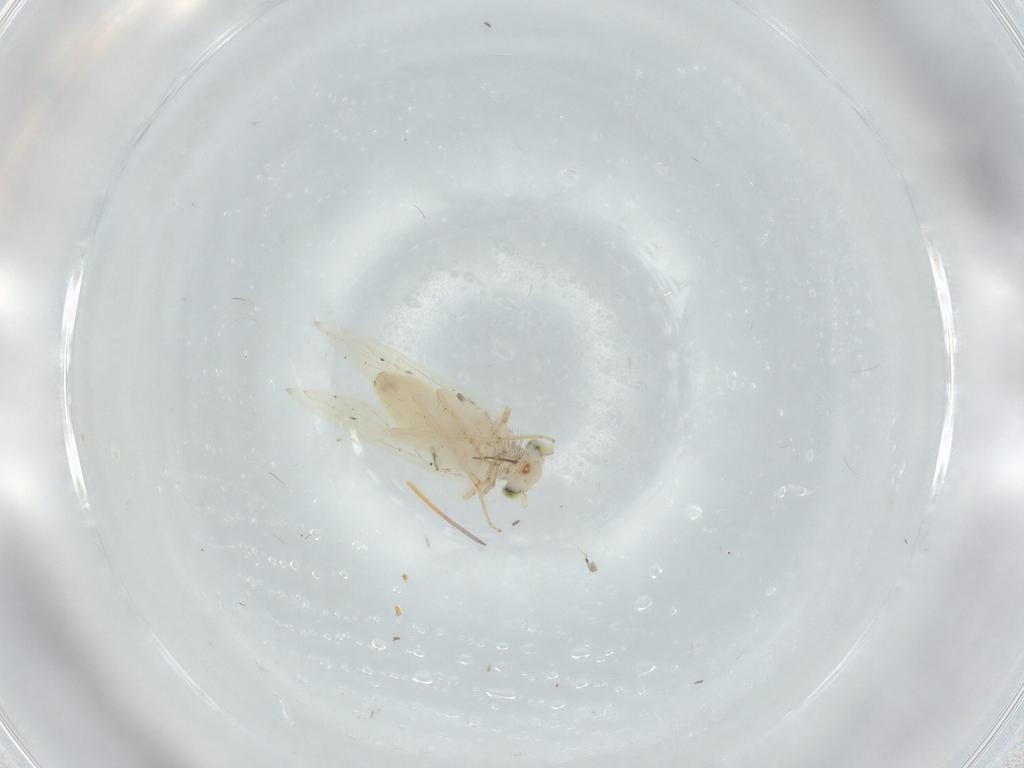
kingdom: Animalia
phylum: Arthropoda
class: Insecta
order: Psocodea
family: Lepidopsocidae
